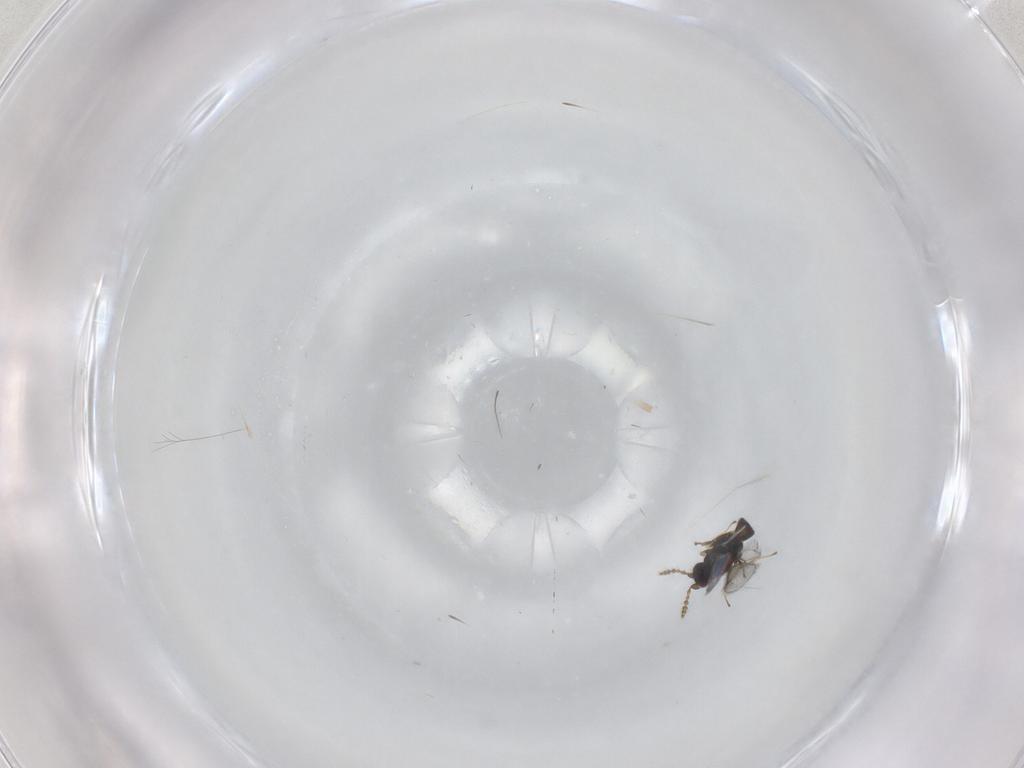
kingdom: Animalia
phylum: Arthropoda
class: Insecta
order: Hymenoptera
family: Eulophidae
